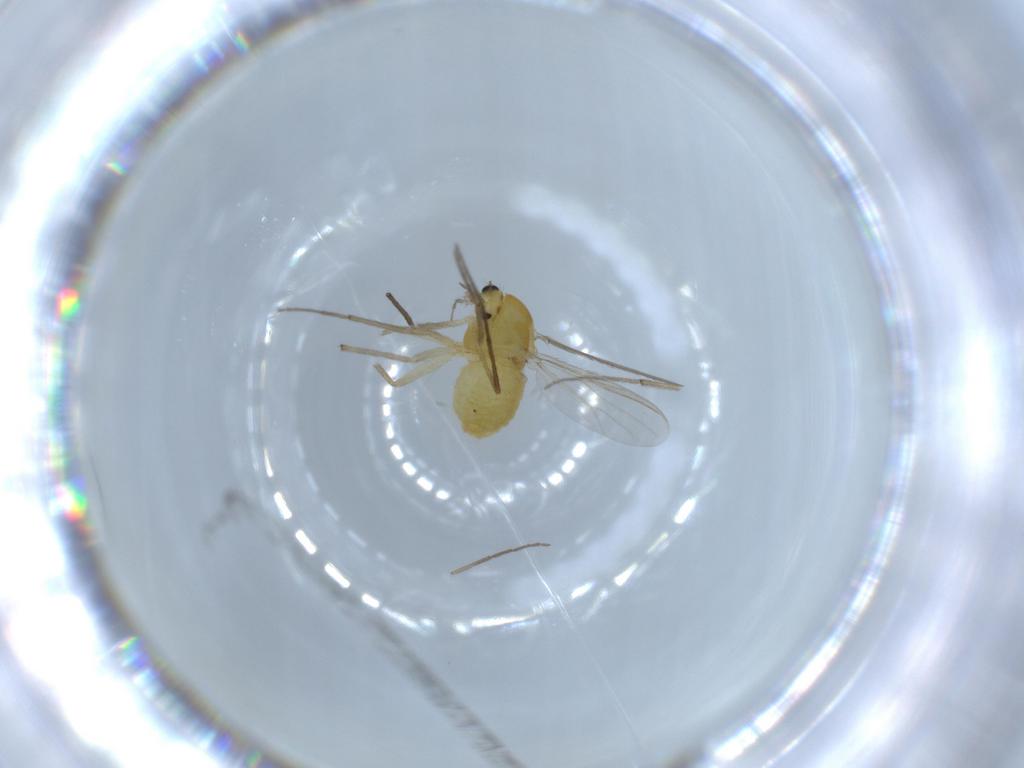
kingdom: Animalia
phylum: Arthropoda
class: Insecta
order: Diptera
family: Chironomidae
